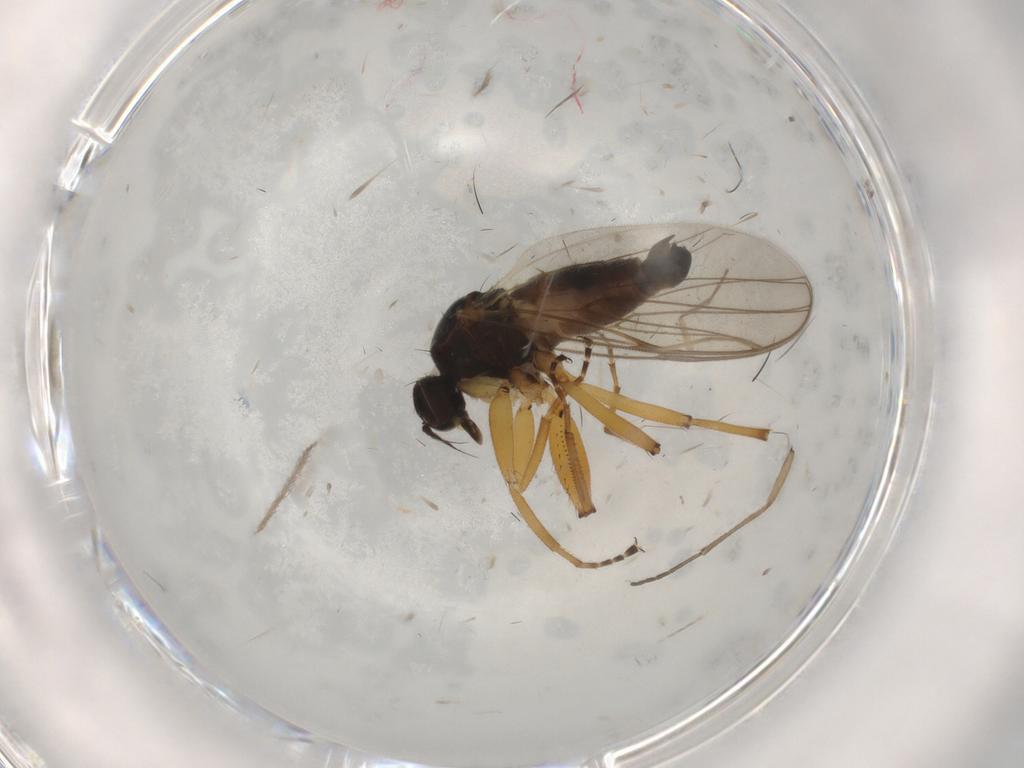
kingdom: Animalia
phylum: Arthropoda
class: Insecta
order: Diptera
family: Hybotidae
